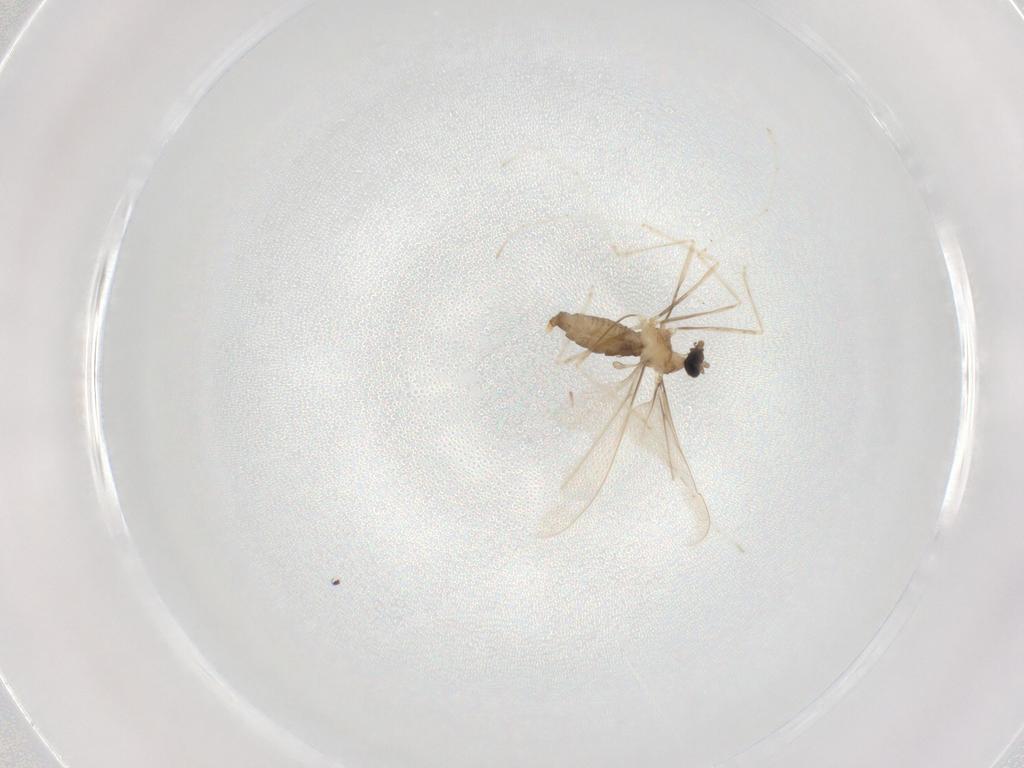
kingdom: Animalia
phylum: Arthropoda
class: Insecta
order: Diptera
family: Cecidomyiidae
